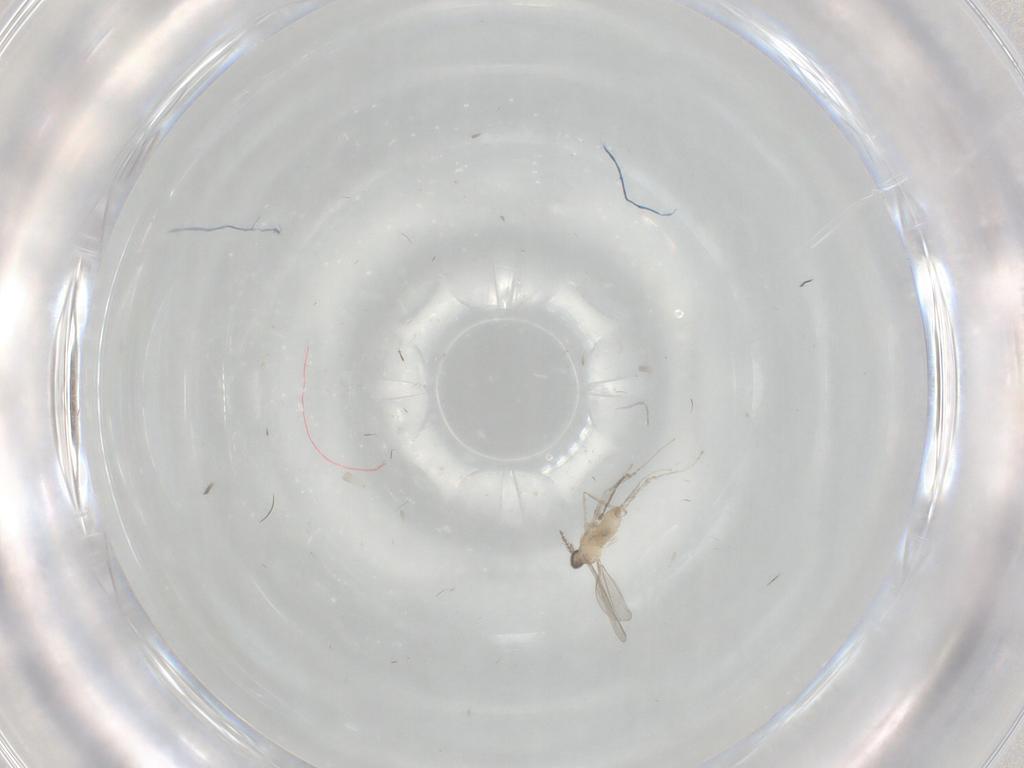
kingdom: Animalia
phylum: Arthropoda
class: Insecta
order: Diptera
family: Cecidomyiidae
